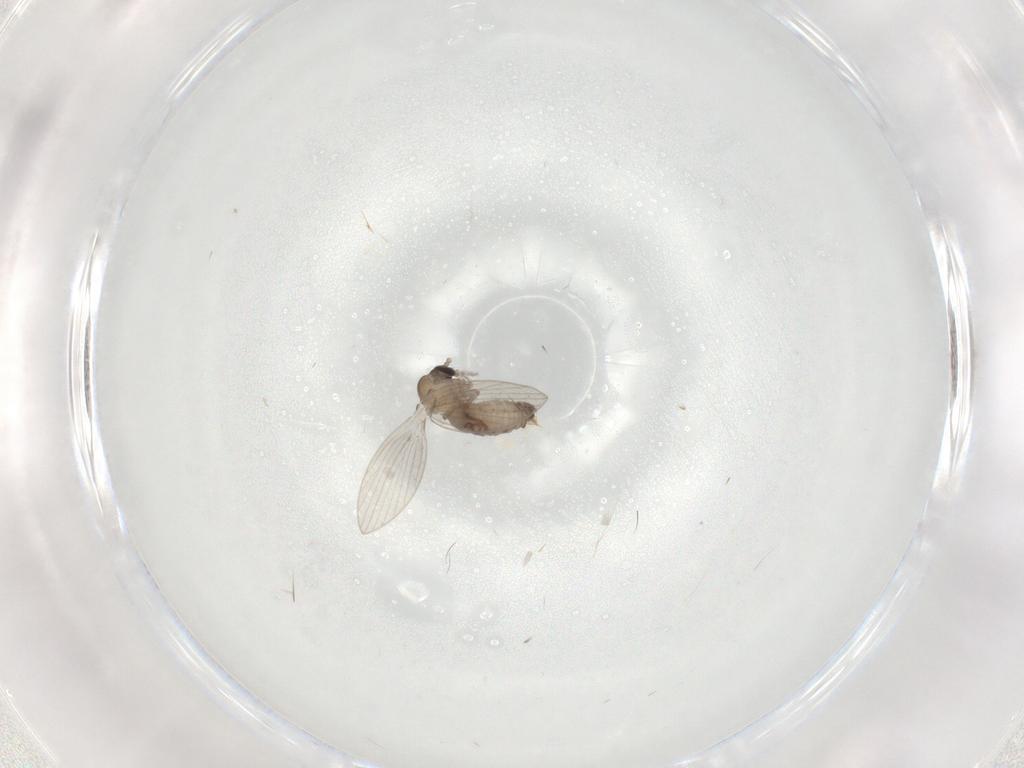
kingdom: Animalia
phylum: Arthropoda
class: Insecta
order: Diptera
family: Psychodidae
